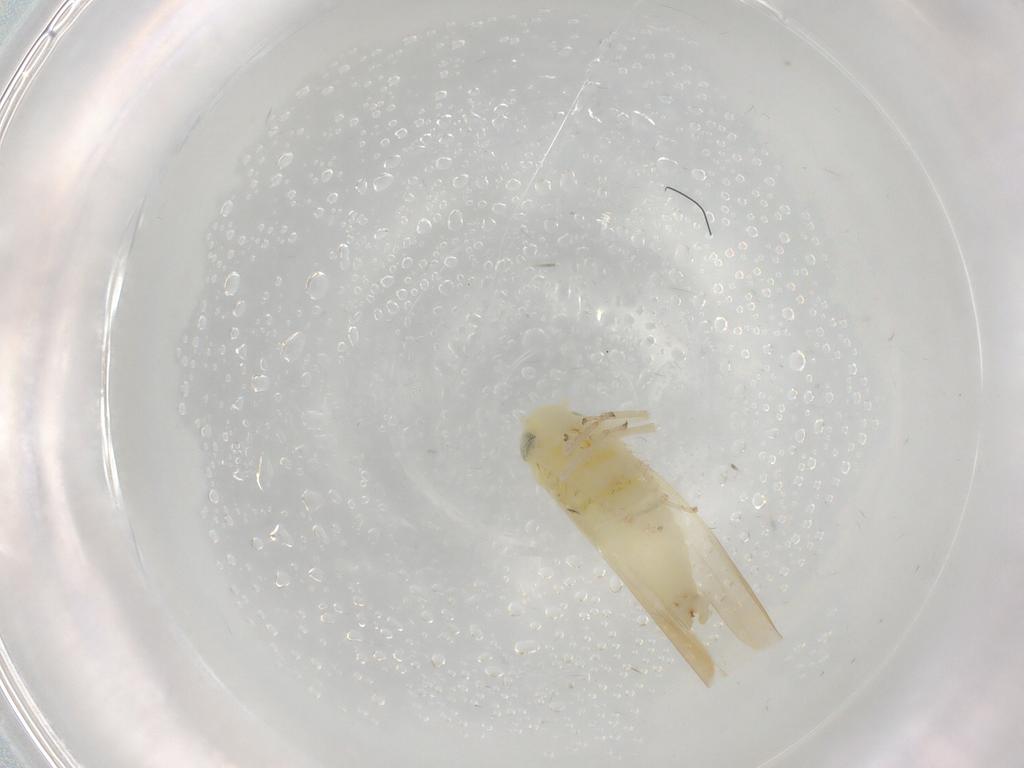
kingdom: Animalia
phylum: Arthropoda
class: Insecta
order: Hemiptera
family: Cicadellidae
